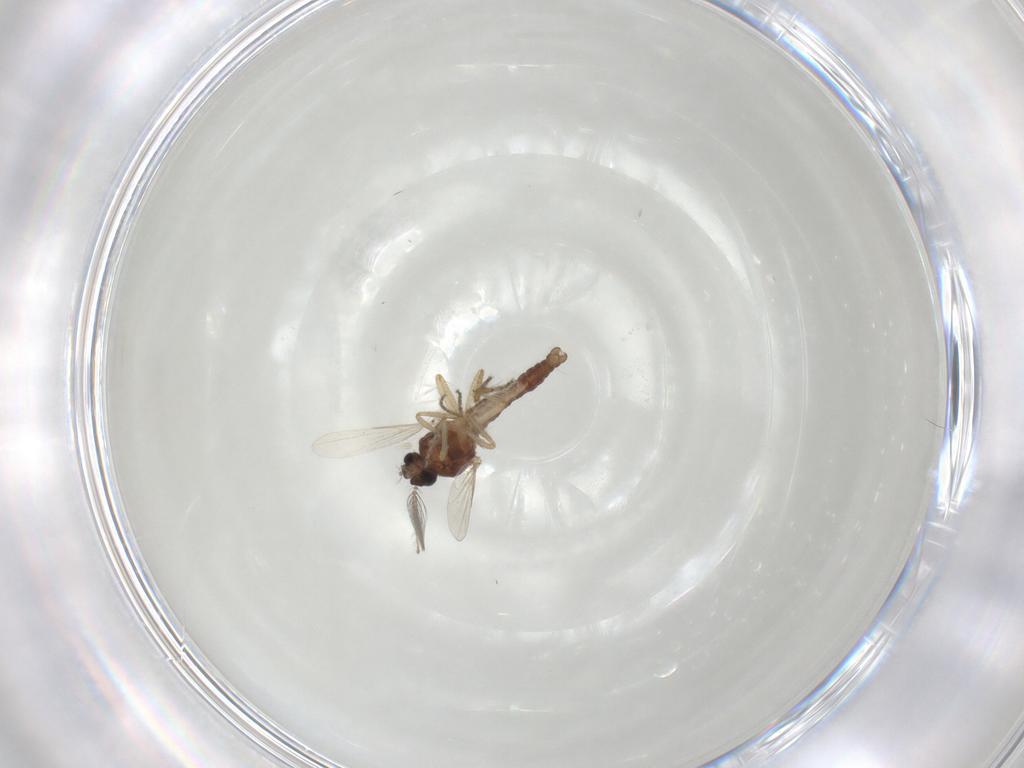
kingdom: Animalia
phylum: Arthropoda
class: Insecta
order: Diptera
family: Ceratopogonidae
